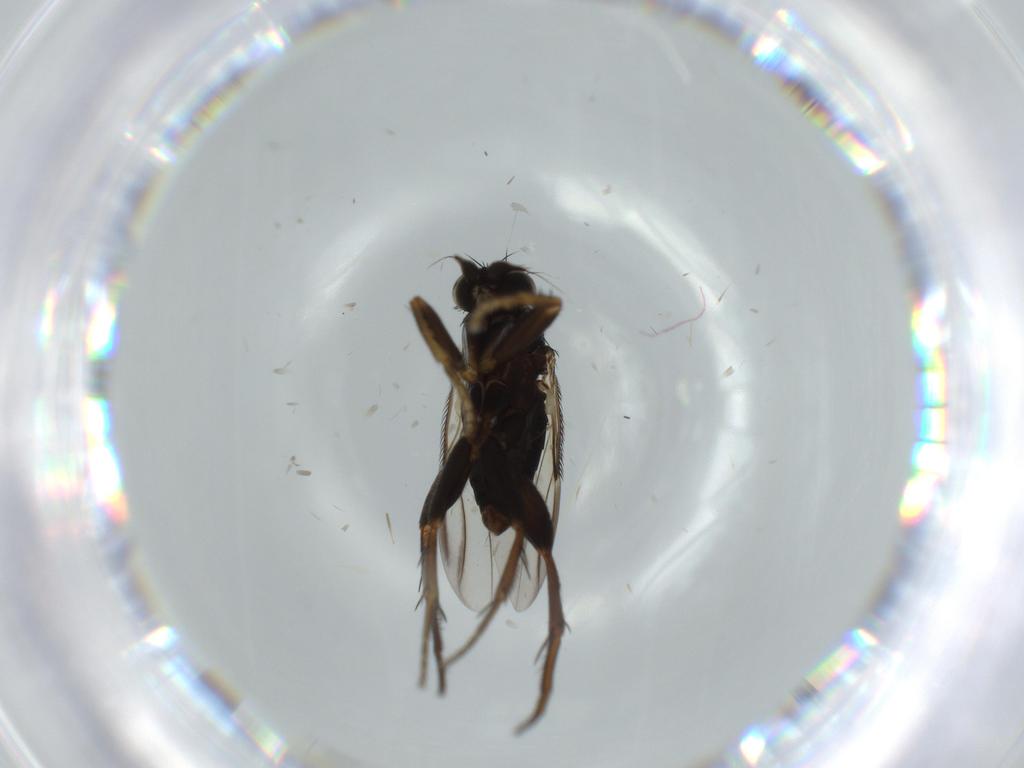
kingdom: Animalia
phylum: Arthropoda
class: Insecta
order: Diptera
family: Phoridae
